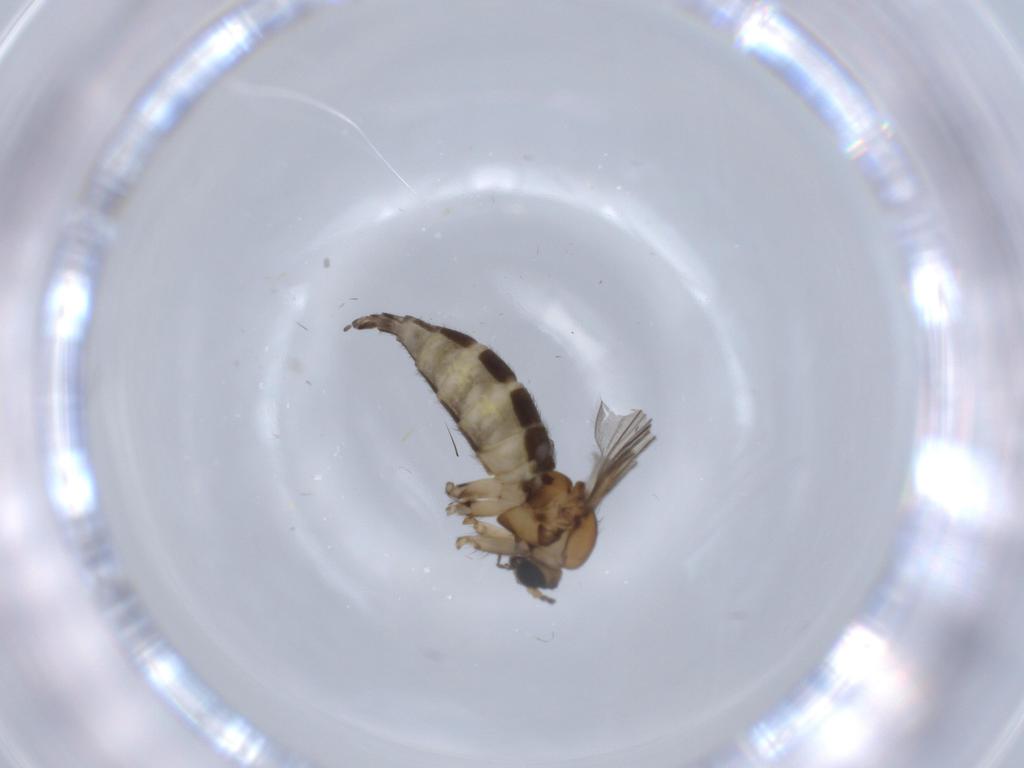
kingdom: Animalia
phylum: Arthropoda
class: Insecta
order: Diptera
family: Sciaridae
